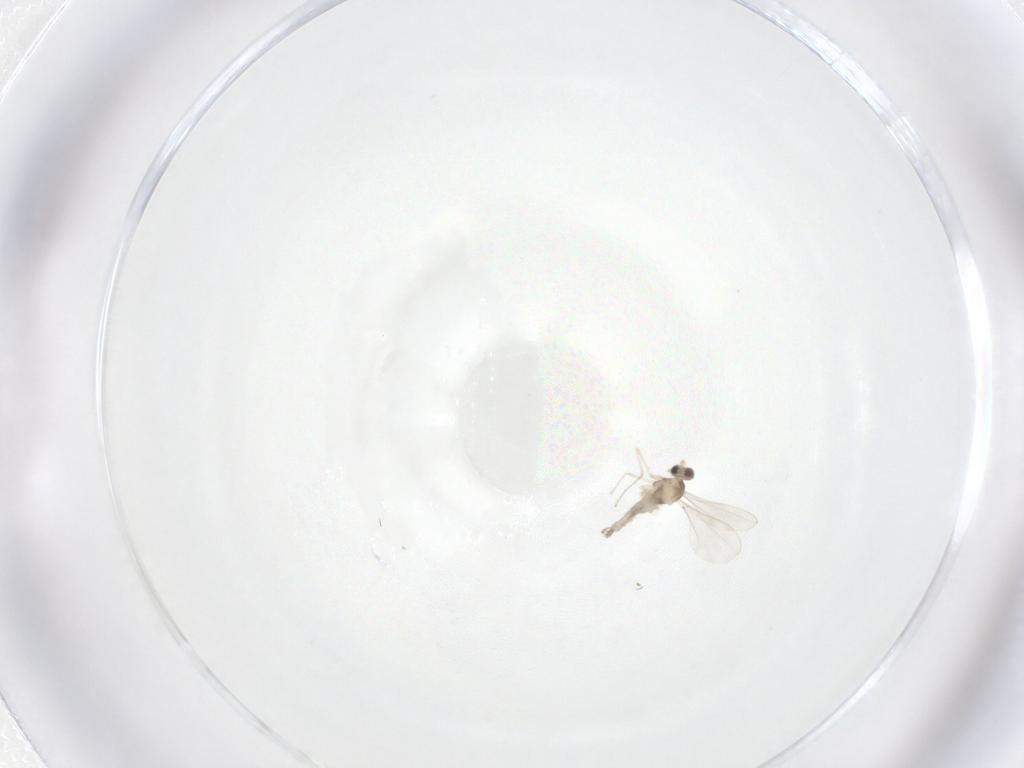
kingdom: Animalia
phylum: Arthropoda
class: Insecta
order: Diptera
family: Cecidomyiidae
